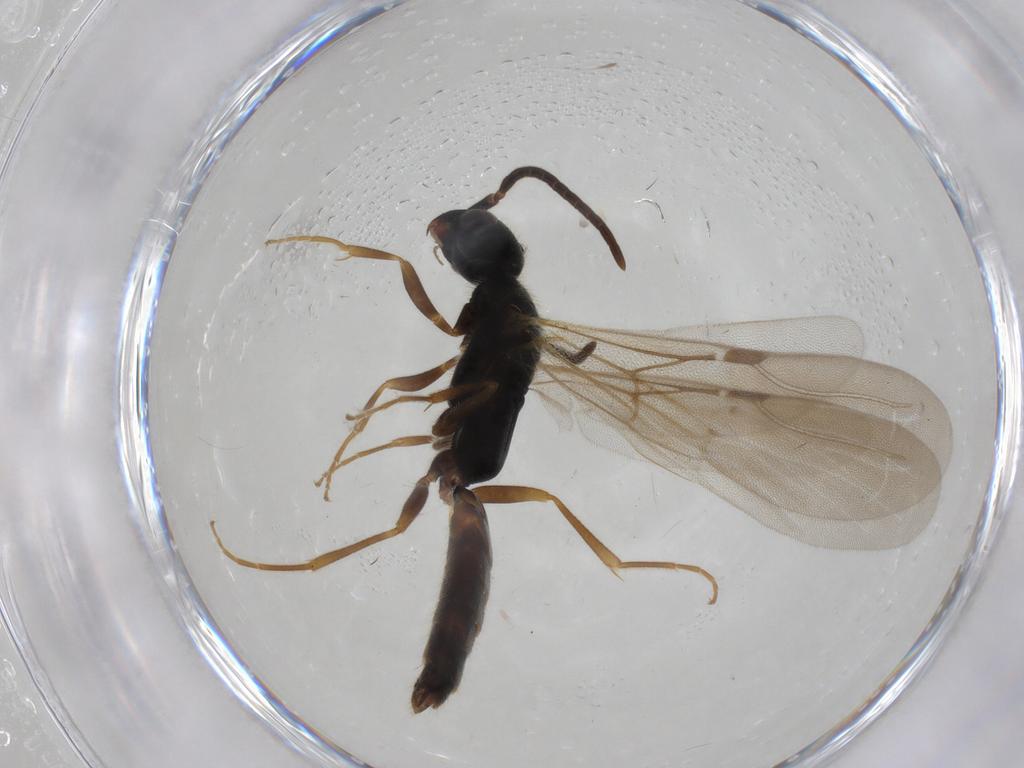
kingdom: Animalia
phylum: Arthropoda
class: Insecta
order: Hymenoptera
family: Bethylidae
